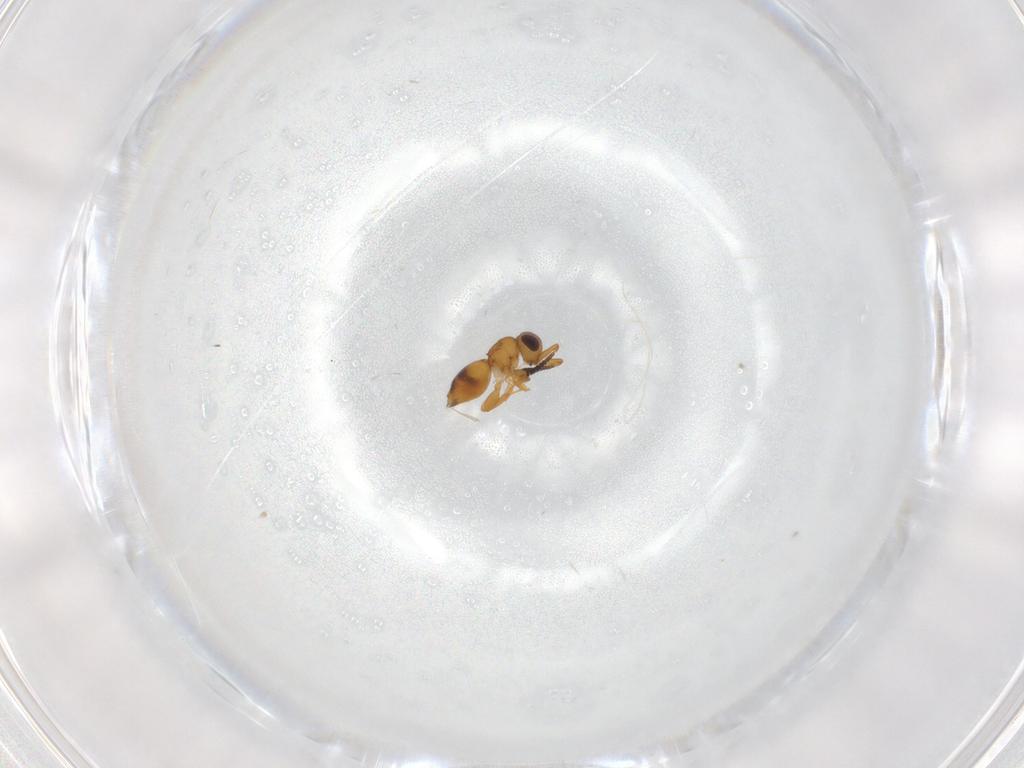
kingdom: Animalia
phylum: Arthropoda
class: Insecta
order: Hymenoptera
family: Ceraphronidae
